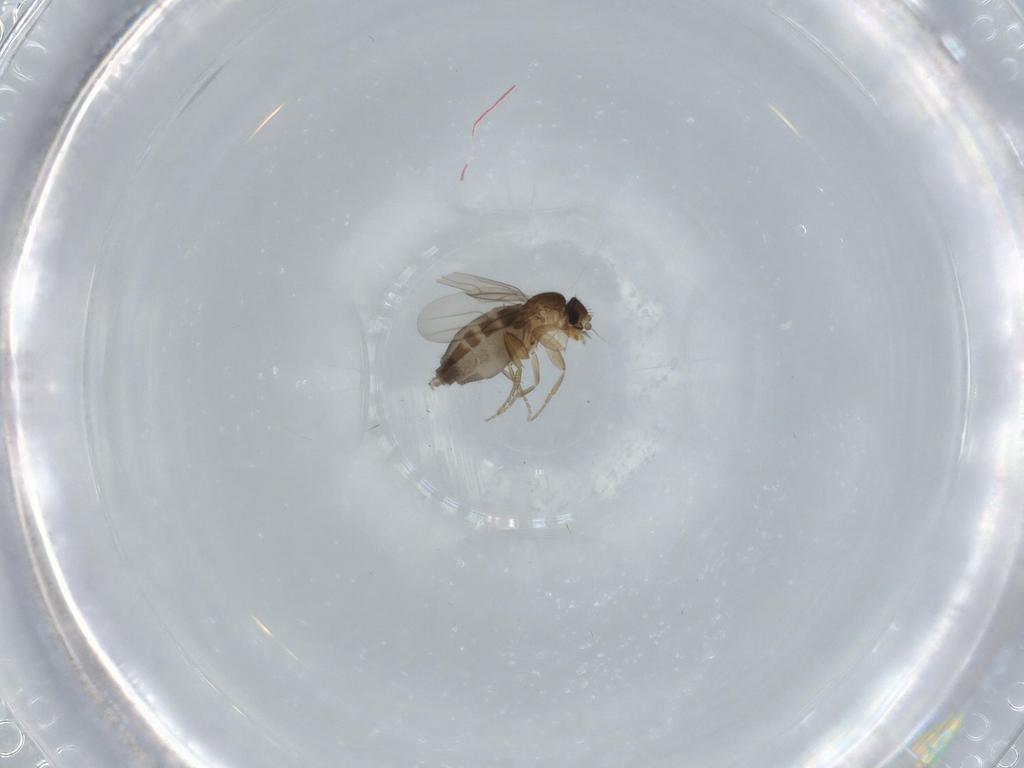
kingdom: Animalia
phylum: Arthropoda
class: Insecta
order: Diptera
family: Phoridae
